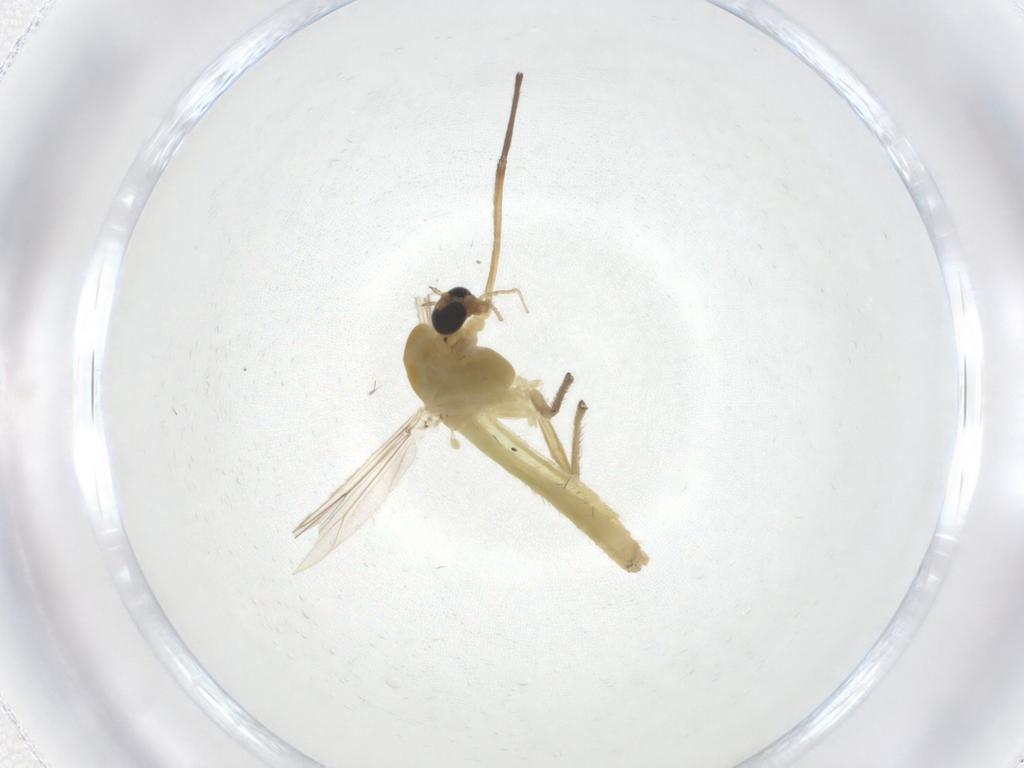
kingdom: Animalia
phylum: Arthropoda
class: Insecta
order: Diptera
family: Chironomidae
